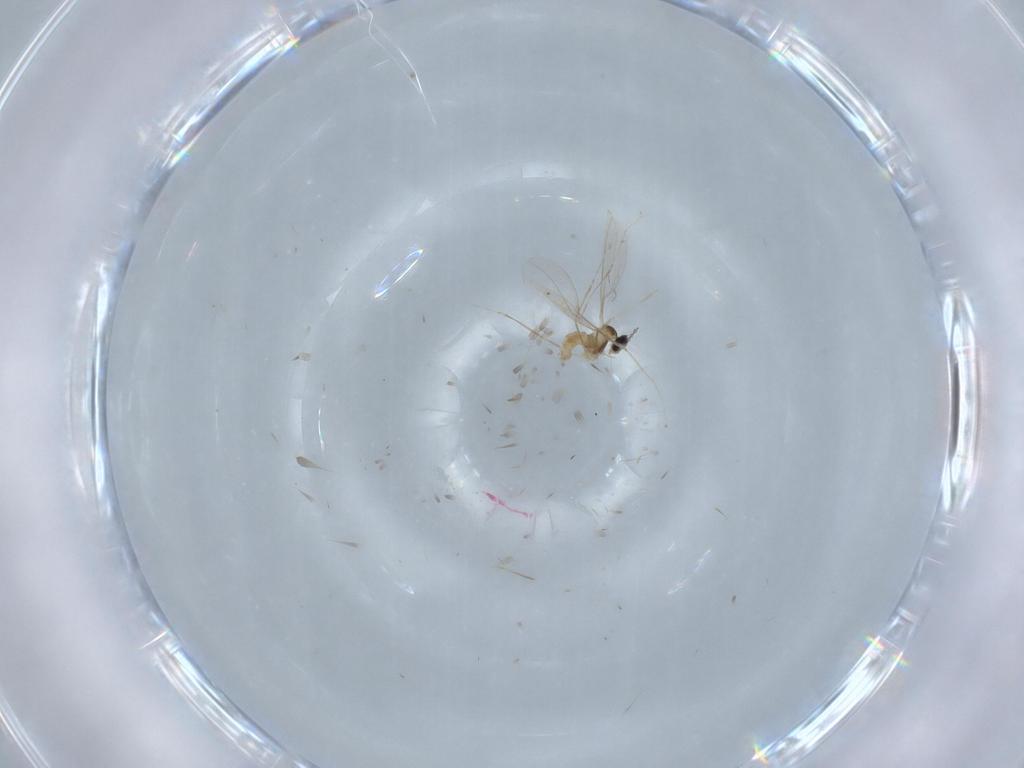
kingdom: Animalia
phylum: Arthropoda
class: Insecta
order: Diptera
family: Cecidomyiidae
